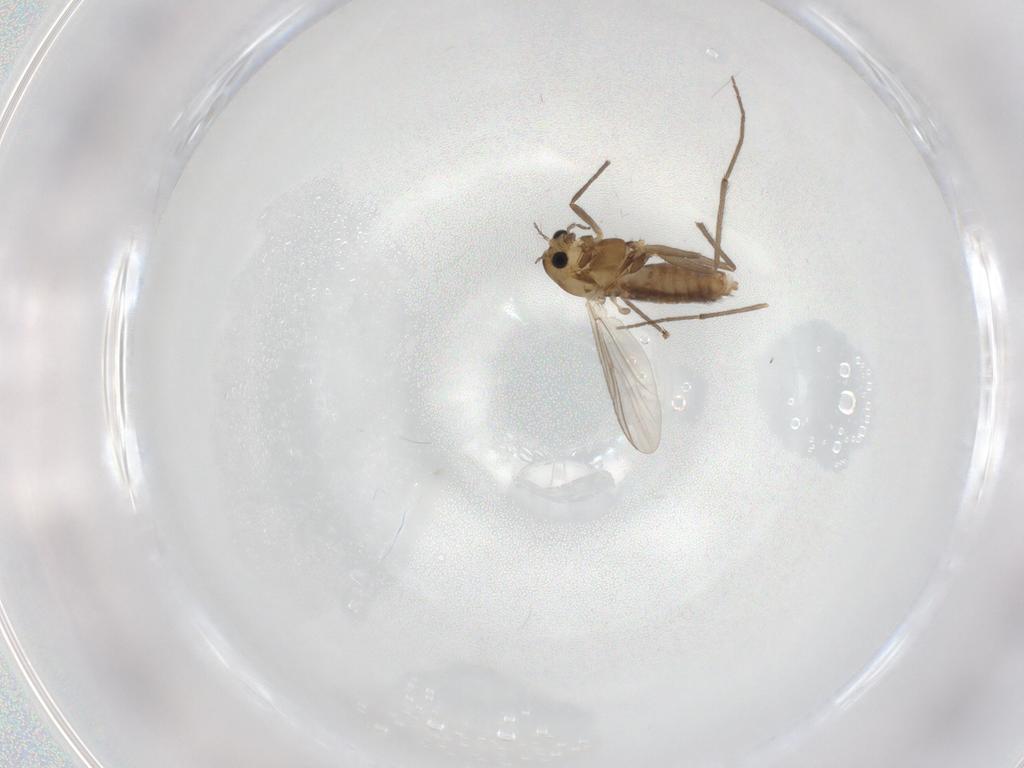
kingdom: Animalia
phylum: Arthropoda
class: Insecta
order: Diptera
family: Chironomidae
